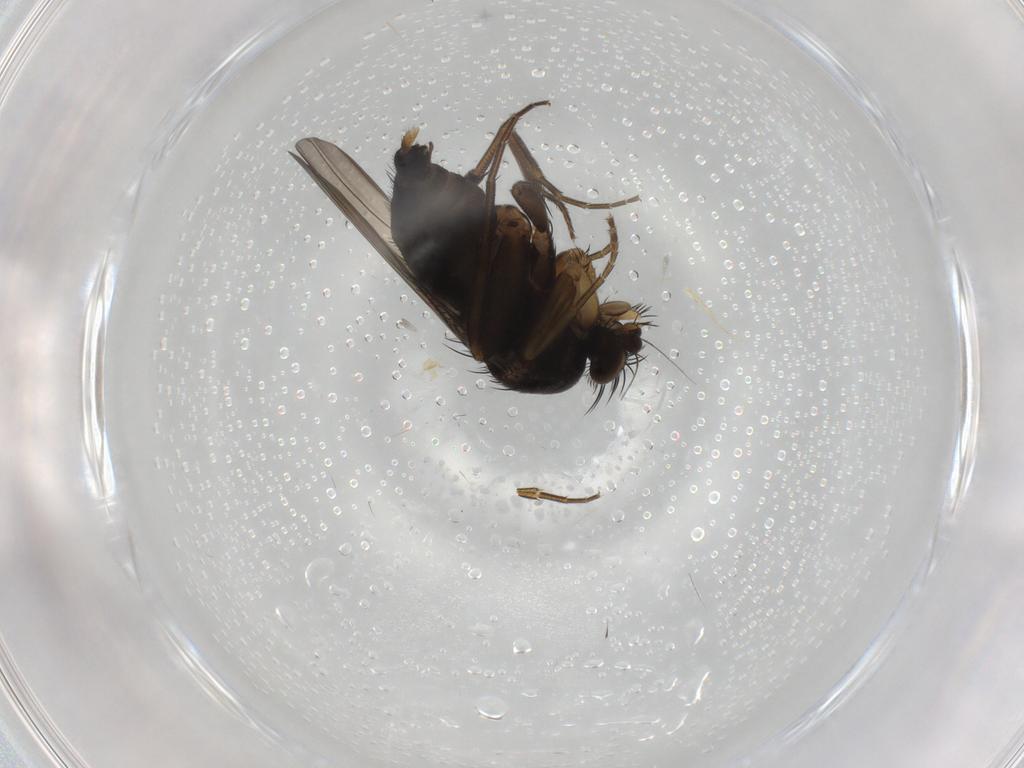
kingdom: Animalia
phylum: Arthropoda
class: Insecta
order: Diptera
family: Phoridae
